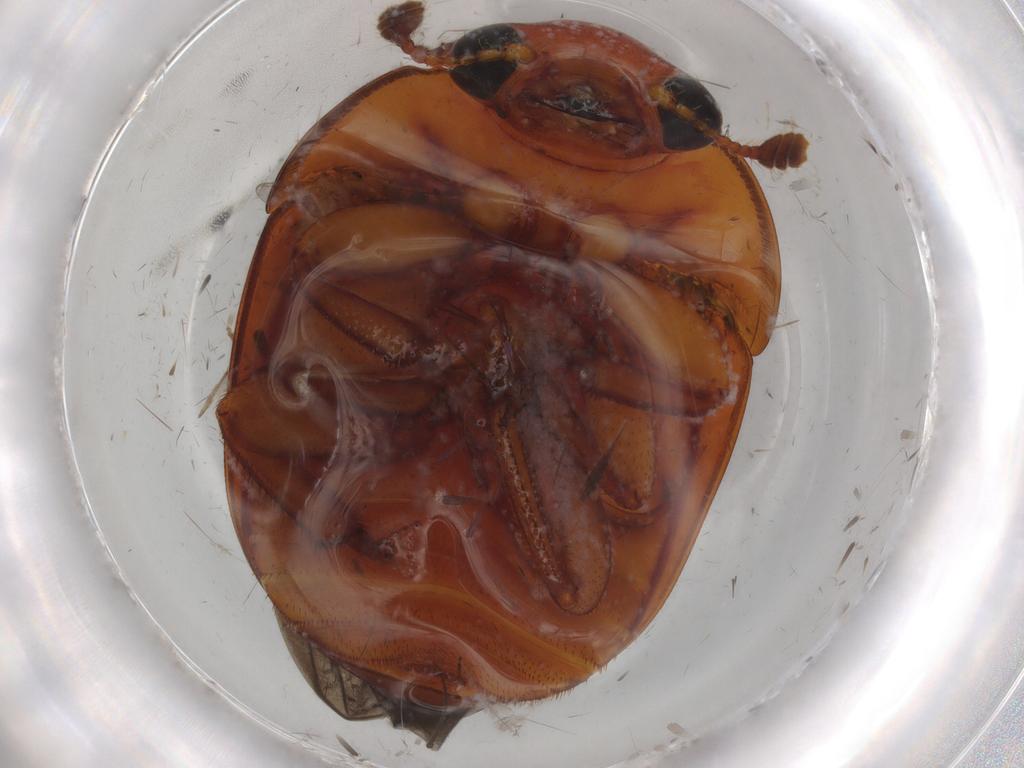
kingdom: Animalia
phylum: Arthropoda
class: Insecta
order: Coleoptera
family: Nitidulidae
